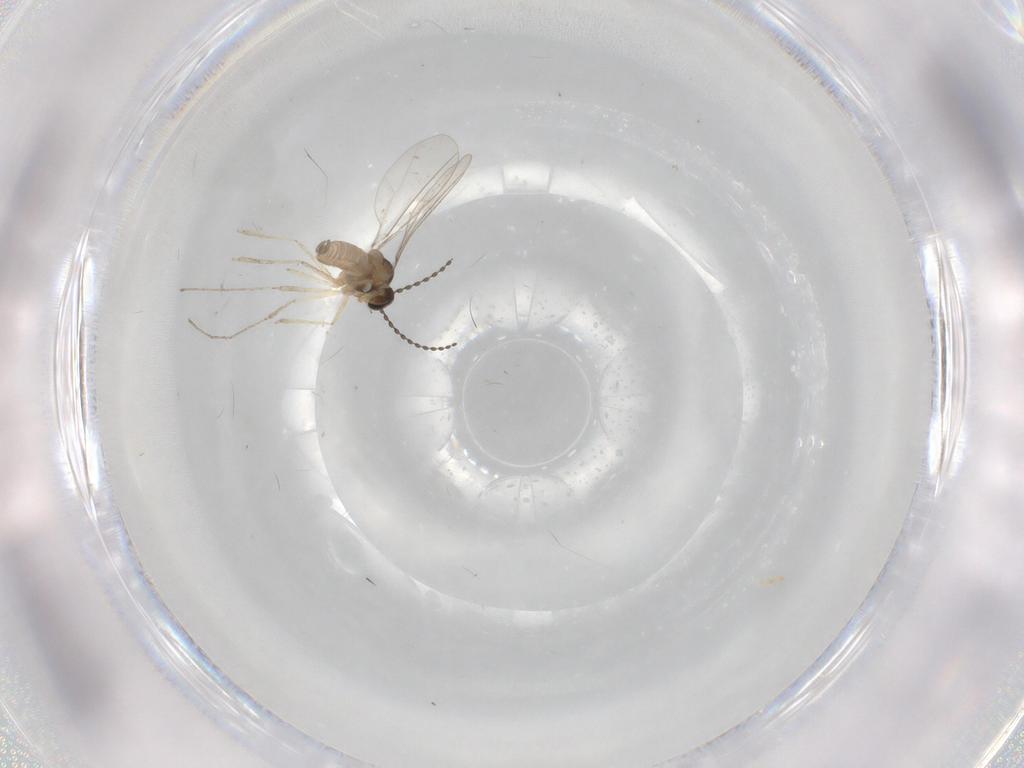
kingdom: Animalia
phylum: Arthropoda
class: Insecta
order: Diptera
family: Cecidomyiidae
